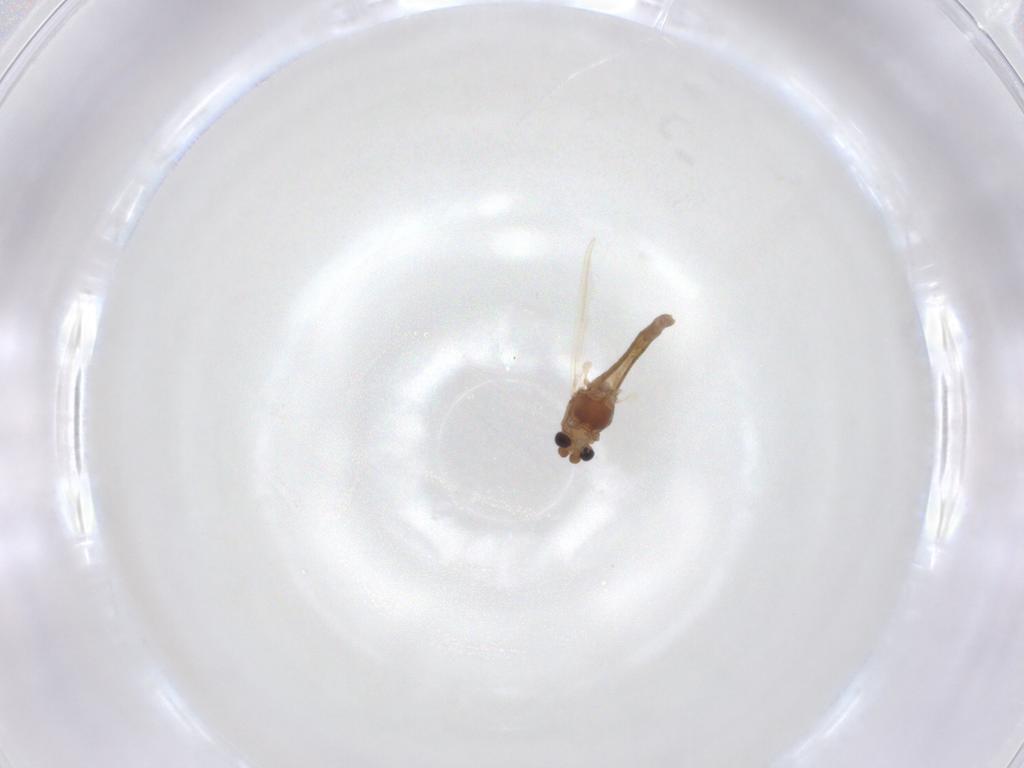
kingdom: Animalia
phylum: Arthropoda
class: Insecta
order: Diptera
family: Chironomidae
